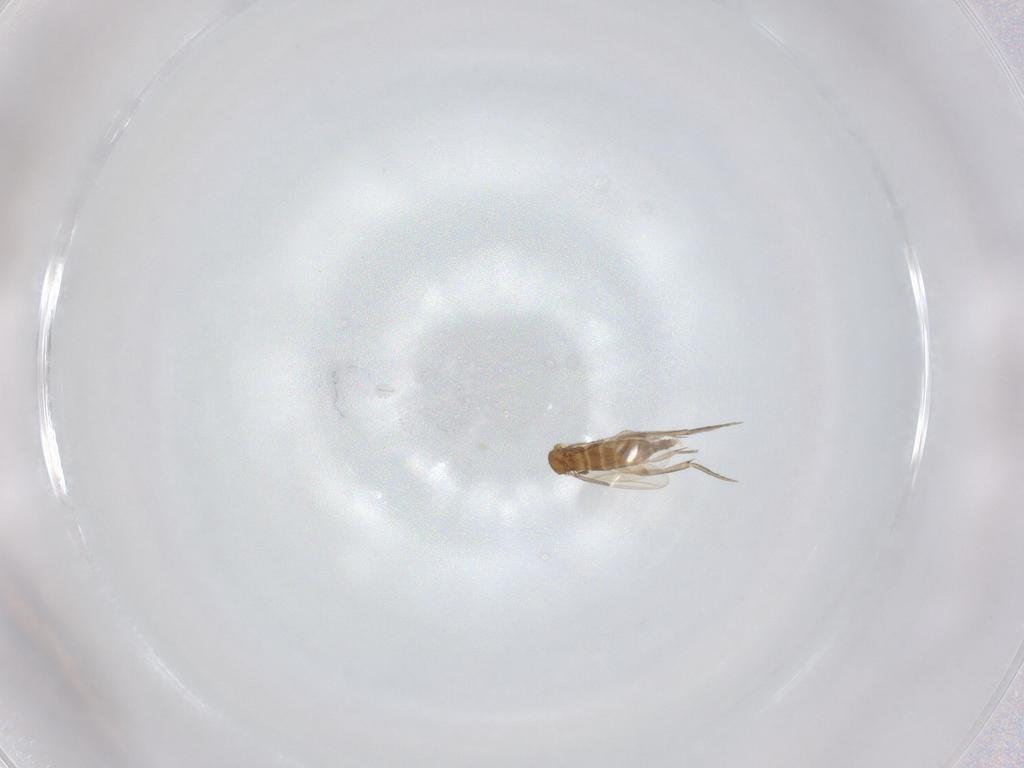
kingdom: Animalia
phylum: Arthropoda
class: Insecta
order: Diptera
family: Phoridae
